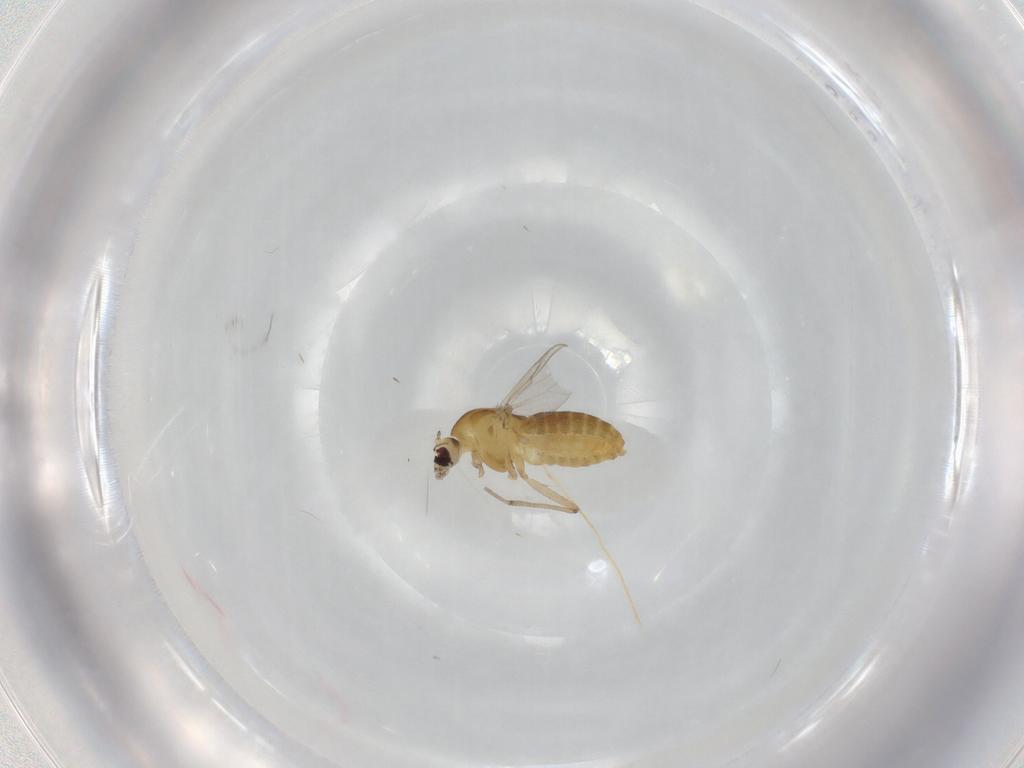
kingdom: Animalia
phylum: Arthropoda
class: Insecta
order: Diptera
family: Chironomidae
